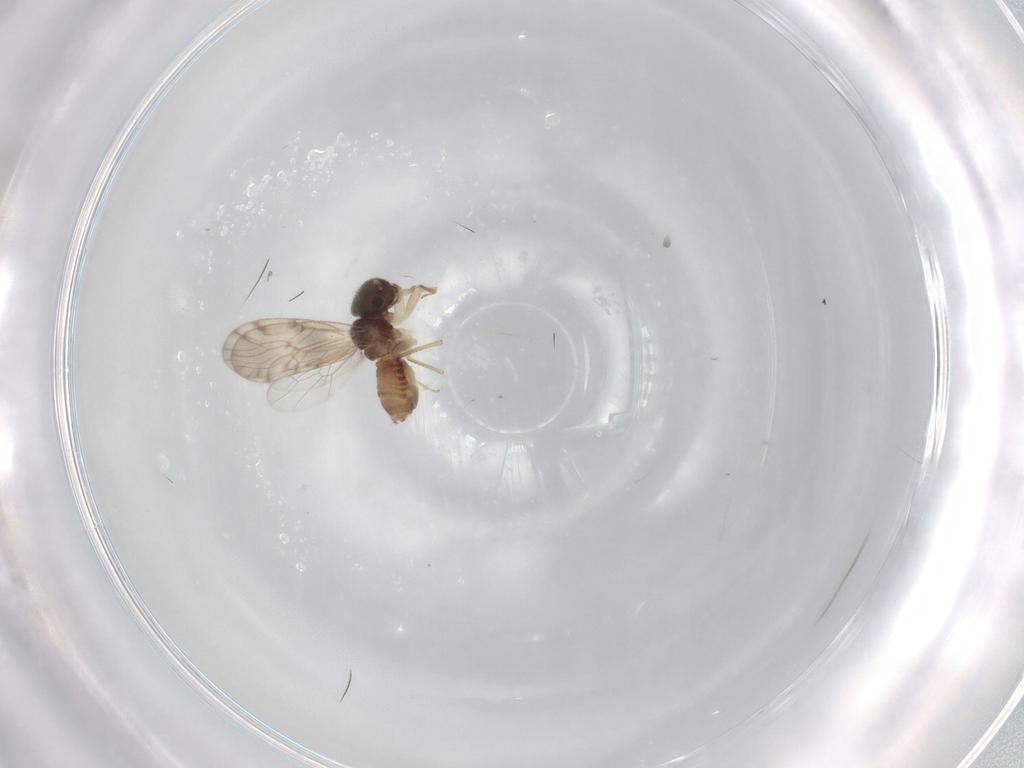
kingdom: Animalia
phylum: Arthropoda
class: Insecta
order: Psocodea
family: Peripsocidae
